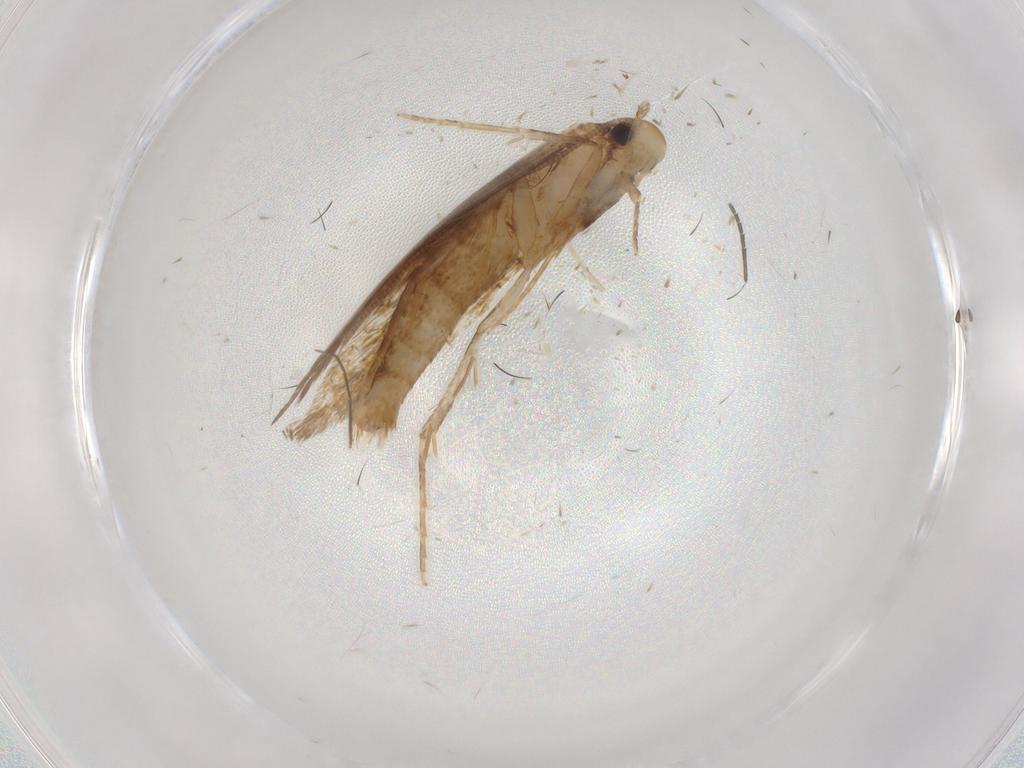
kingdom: Animalia
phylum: Arthropoda
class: Insecta
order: Lepidoptera
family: Tineidae
